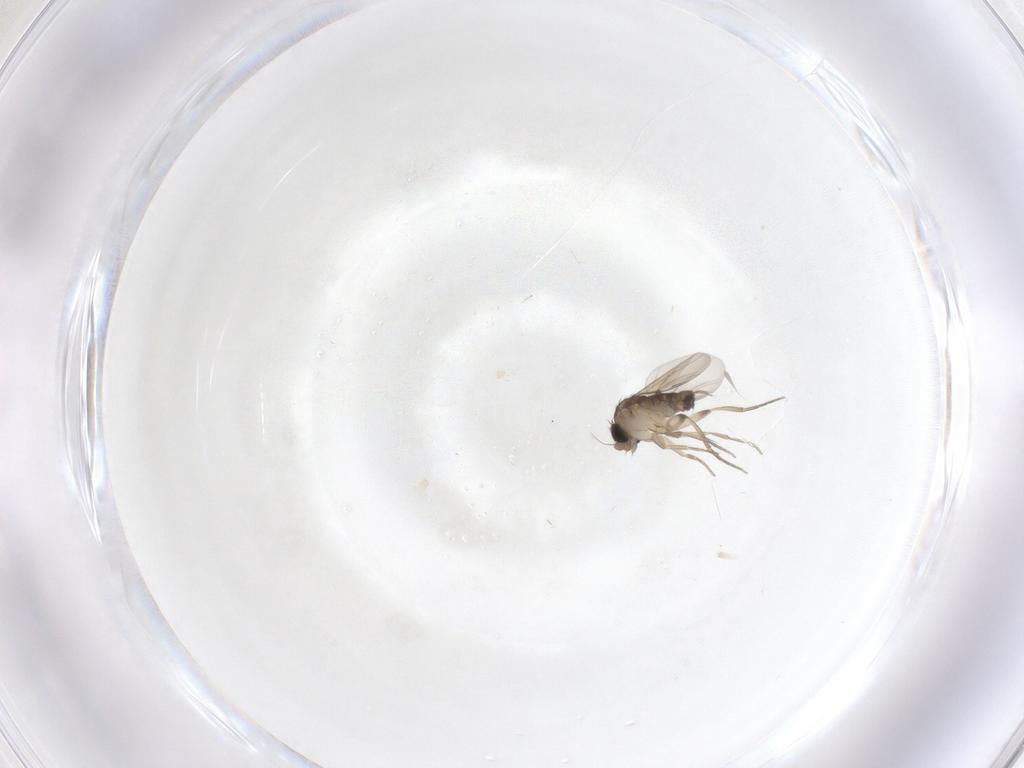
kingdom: Animalia
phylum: Arthropoda
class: Insecta
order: Diptera
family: Phoridae
